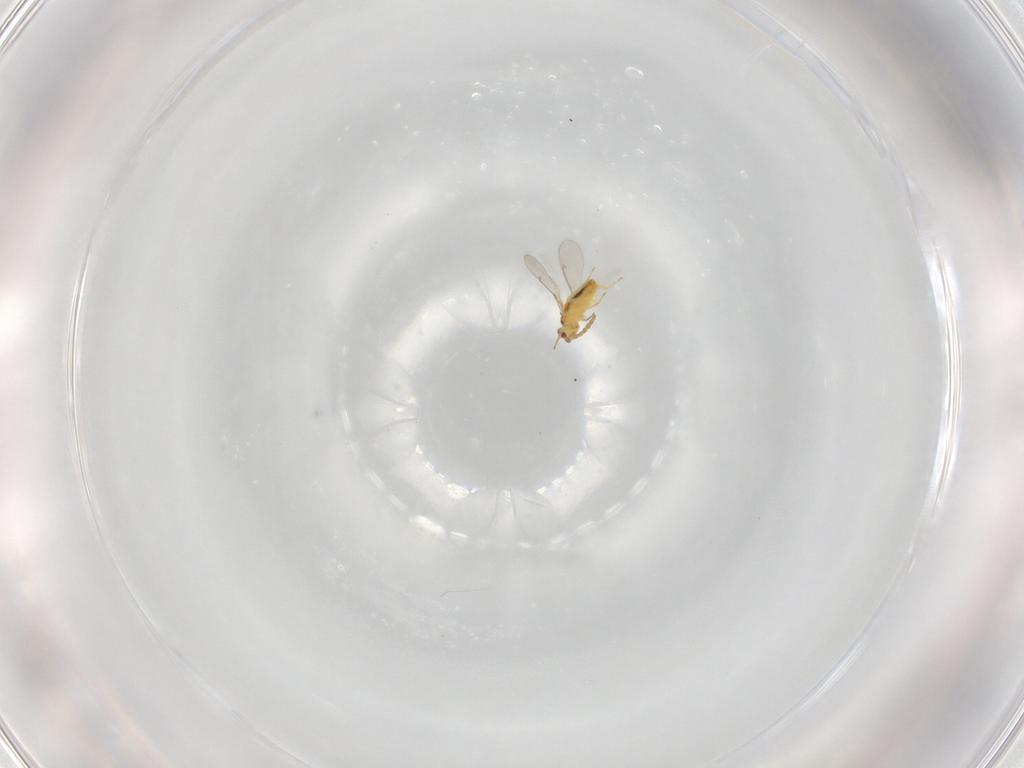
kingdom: Animalia
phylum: Arthropoda
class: Insecta
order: Hymenoptera
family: Aphelinidae
